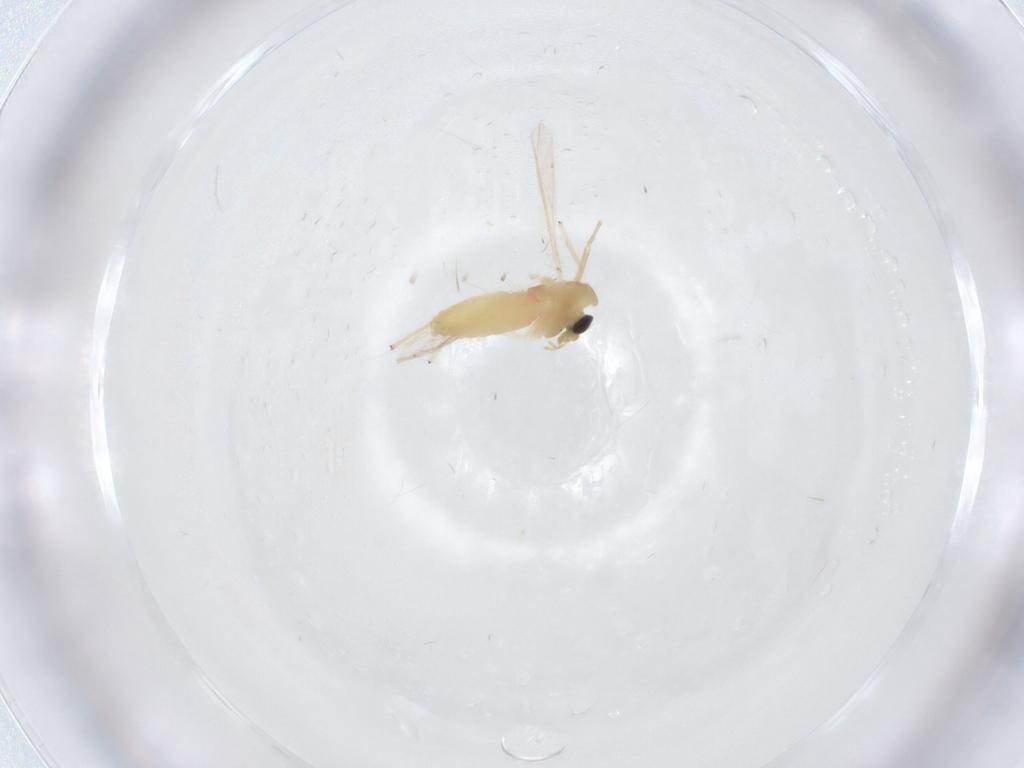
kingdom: Animalia
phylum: Arthropoda
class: Insecta
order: Diptera
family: Chironomidae
